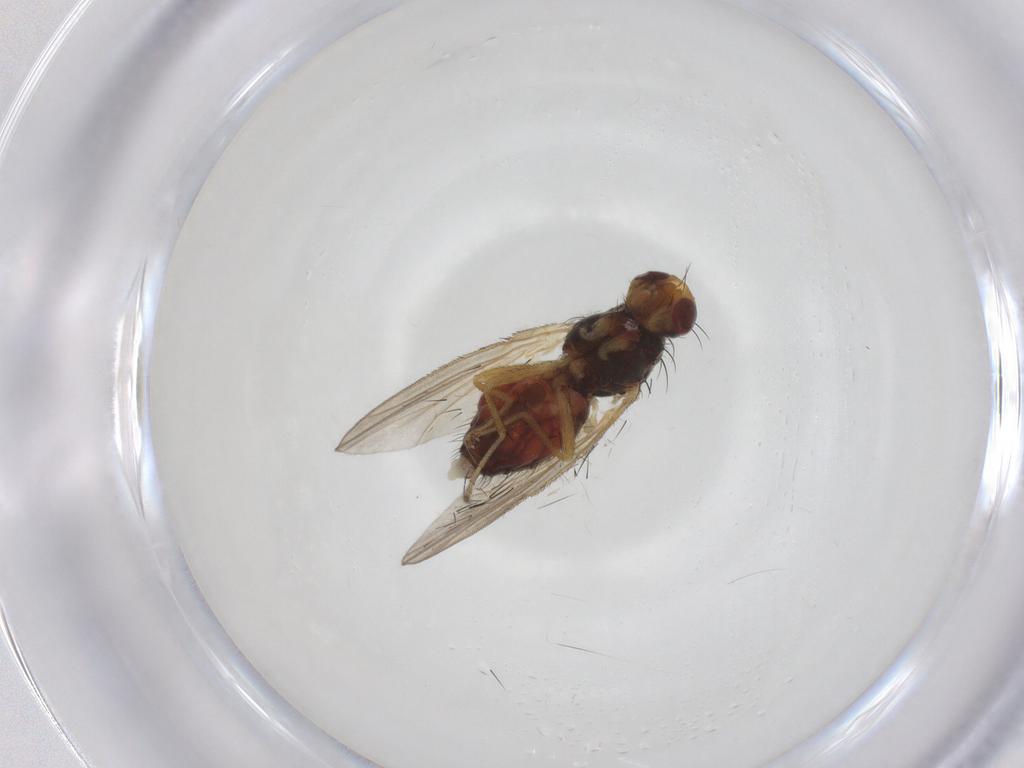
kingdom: Animalia
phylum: Arthropoda
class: Insecta
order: Diptera
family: Heleomyzidae
